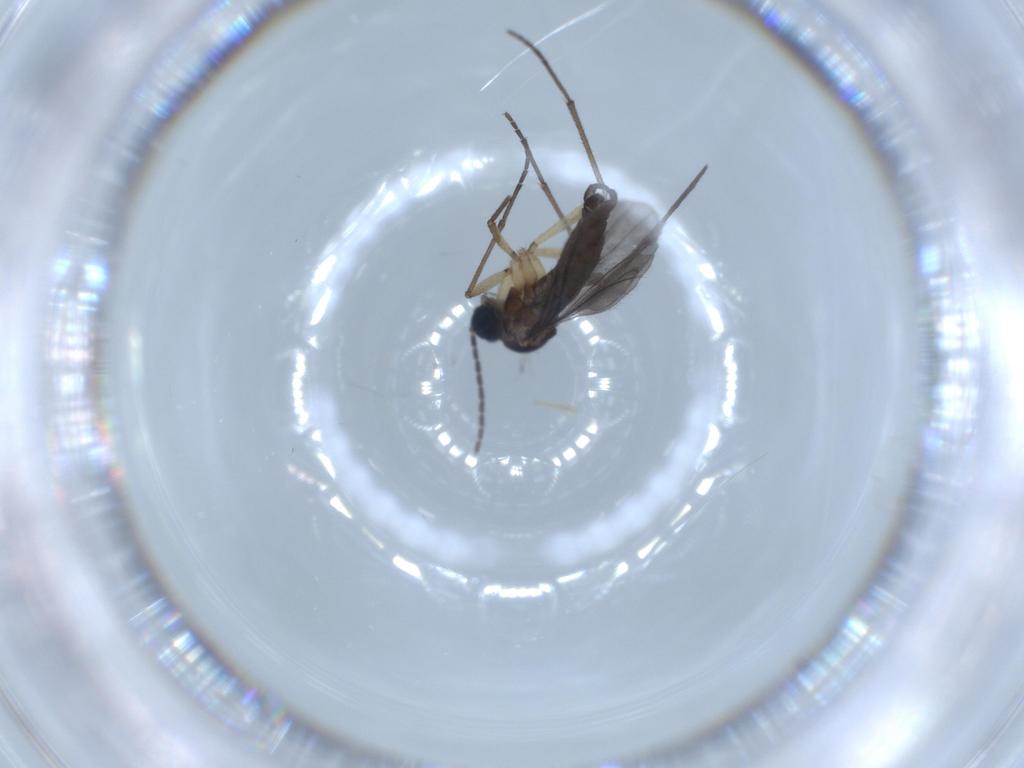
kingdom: Animalia
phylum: Arthropoda
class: Insecta
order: Diptera
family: Sciaridae
